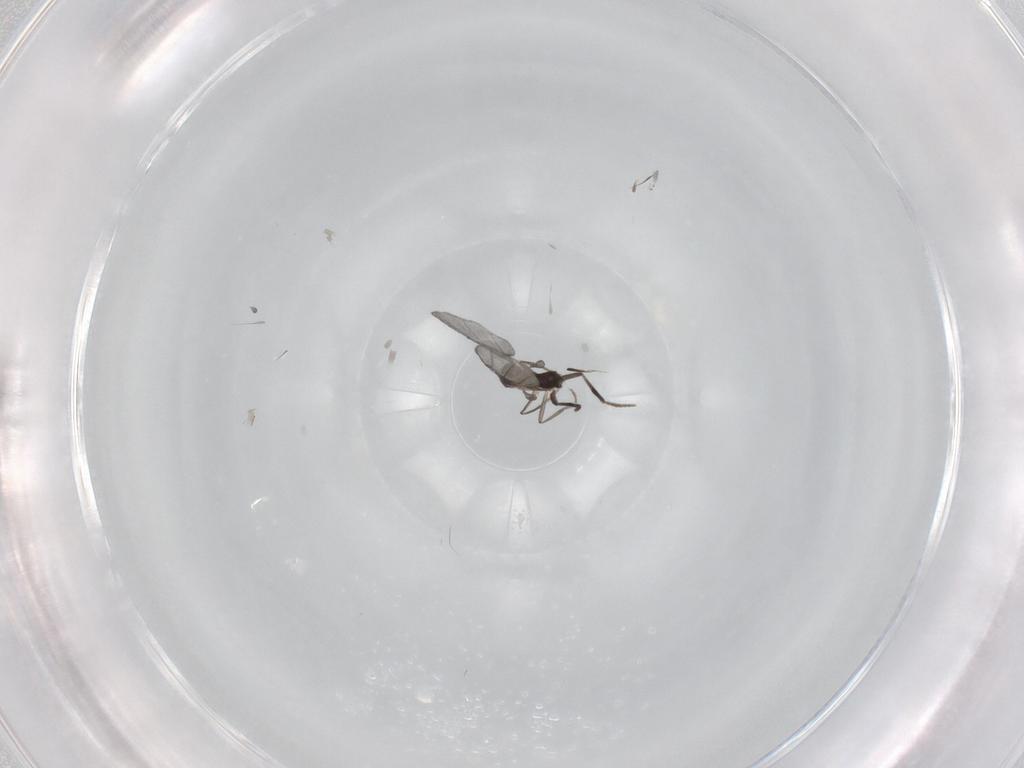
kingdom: Animalia
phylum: Arthropoda
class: Insecta
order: Diptera
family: Phoridae
